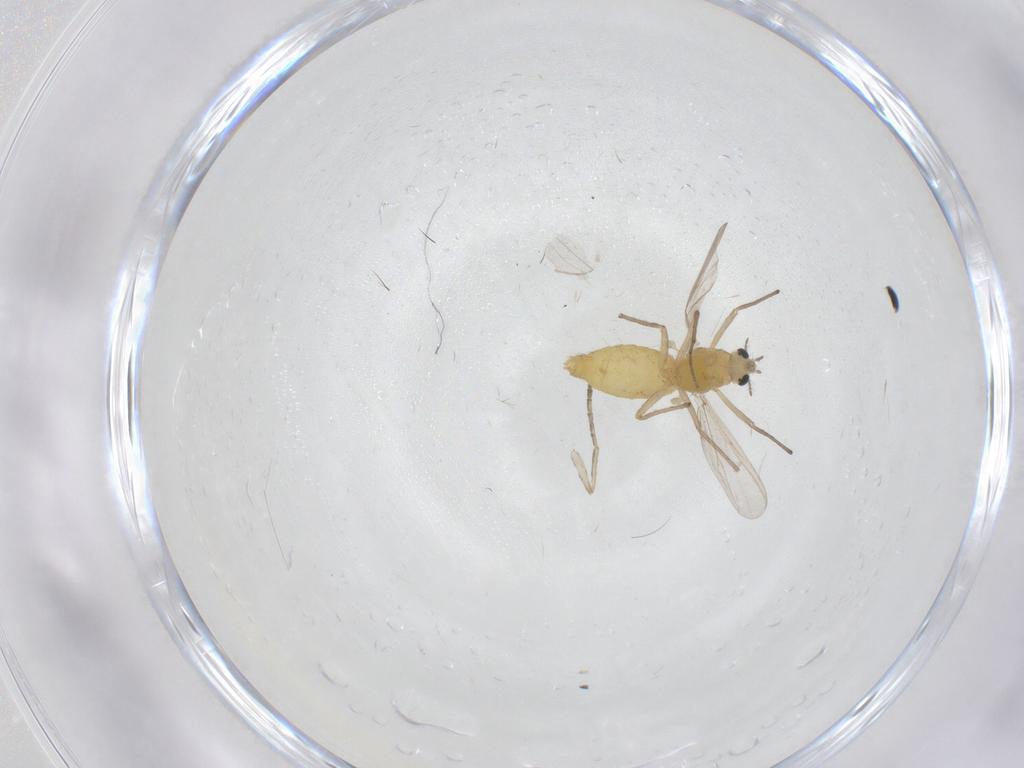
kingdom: Animalia
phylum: Arthropoda
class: Insecta
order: Diptera
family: Chironomidae
